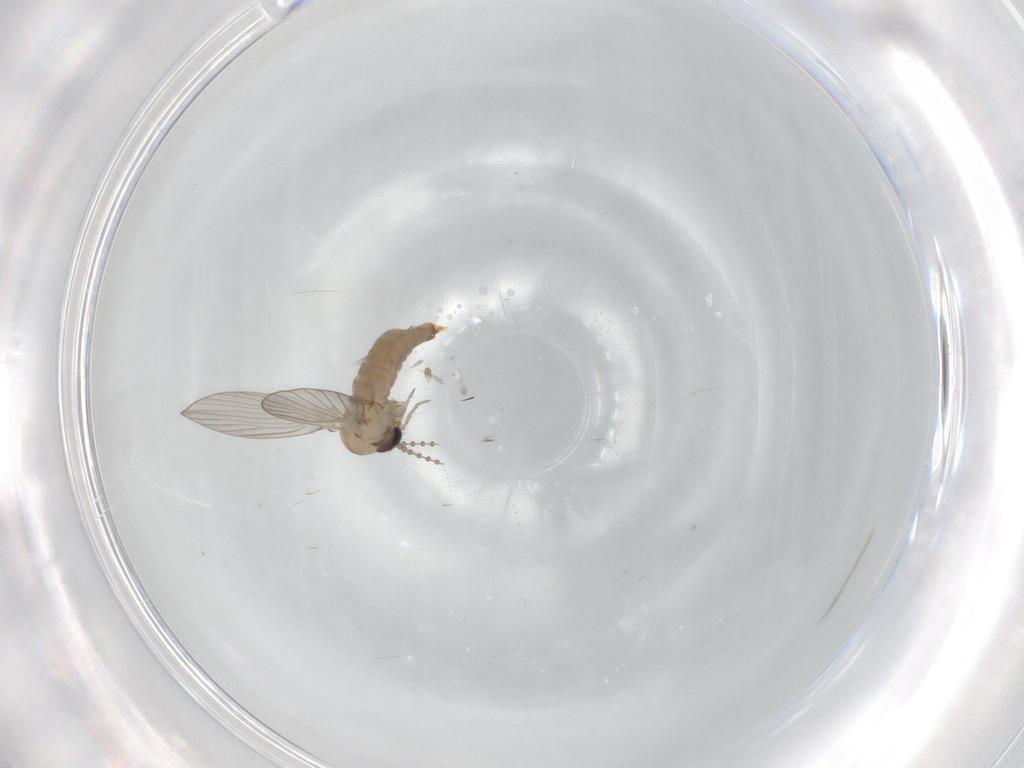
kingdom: Animalia
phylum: Arthropoda
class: Insecta
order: Diptera
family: Psychodidae
